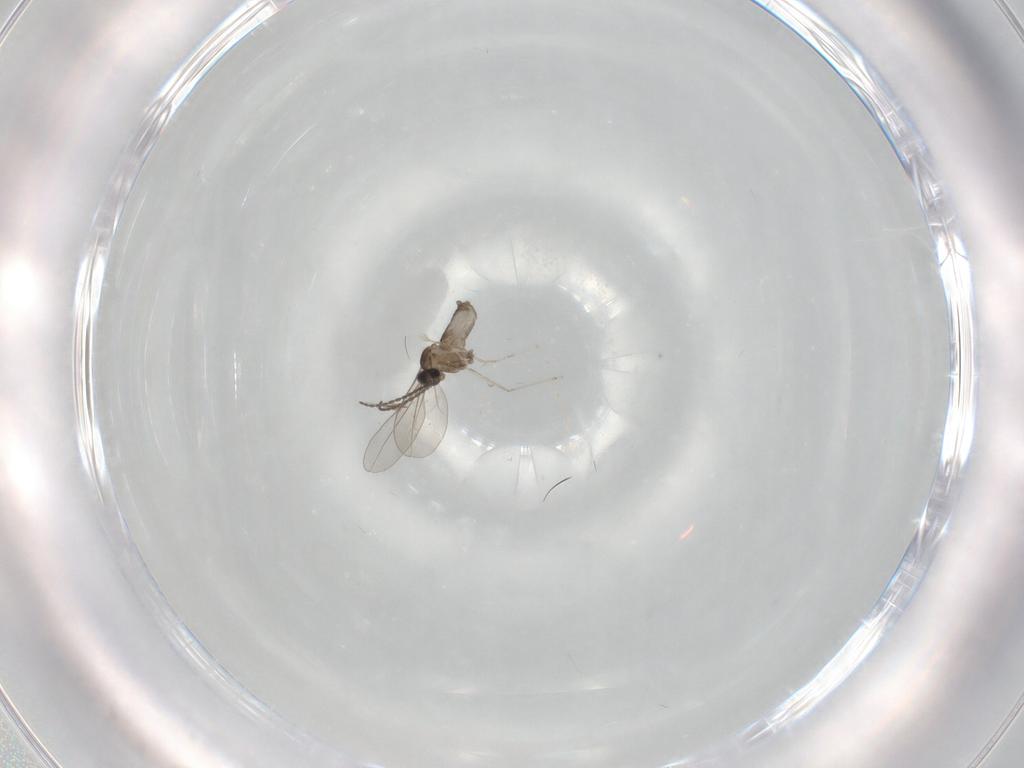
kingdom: Animalia
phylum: Arthropoda
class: Insecta
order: Diptera
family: Cecidomyiidae
